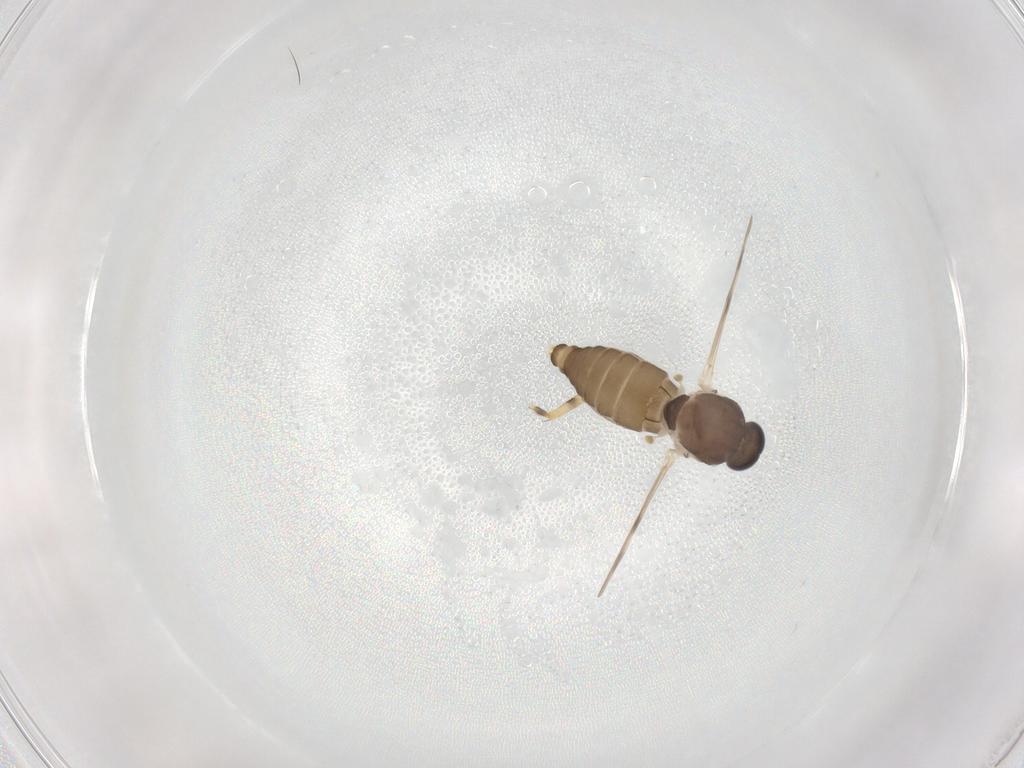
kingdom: Animalia
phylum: Arthropoda
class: Insecta
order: Diptera
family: Ceratopogonidae
